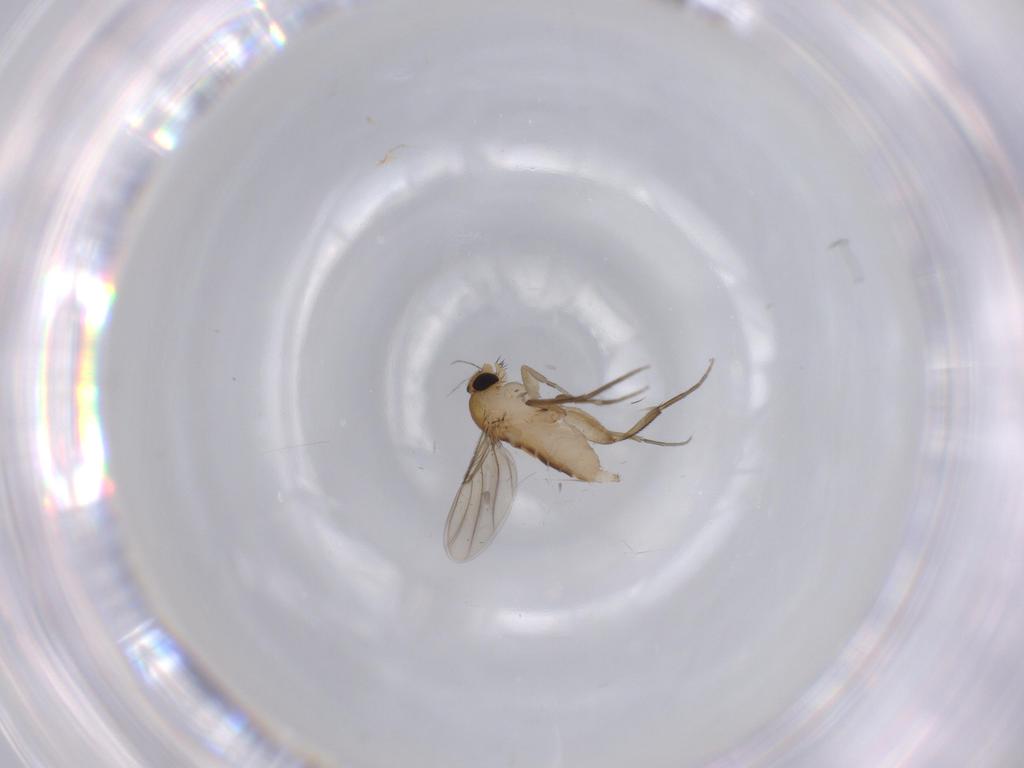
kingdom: Animalia
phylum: Arthropoda
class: Insecta
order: Diptera
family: Phoridae
